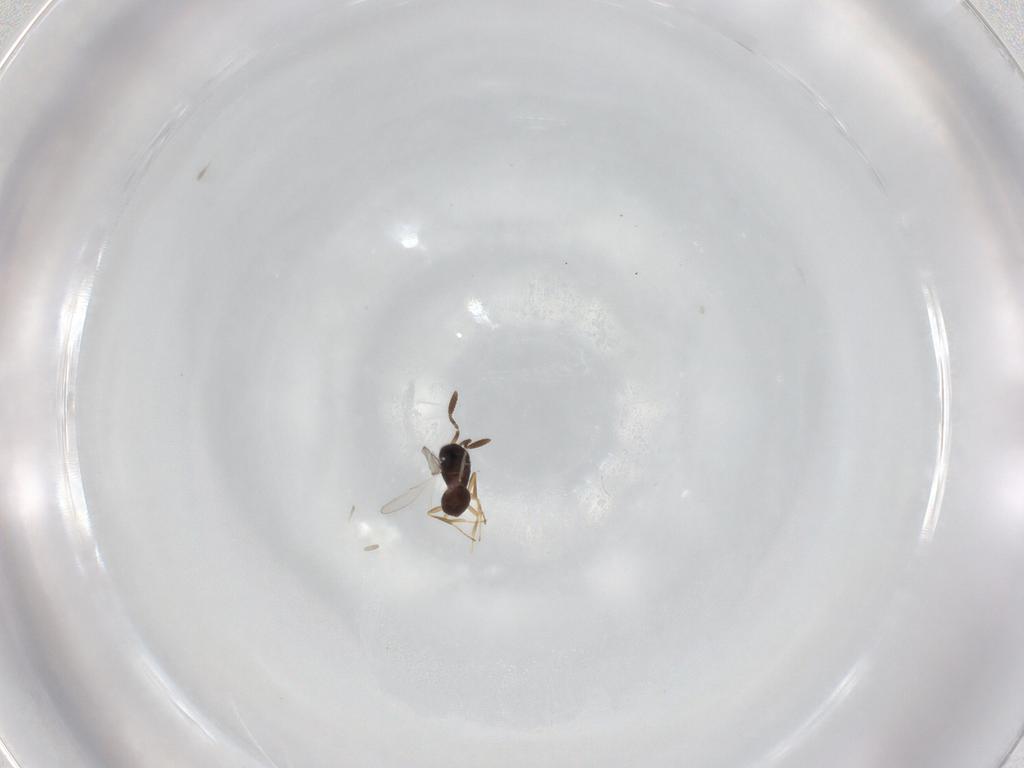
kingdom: Animalia
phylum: Arthropoda
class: Insecta
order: Hymenoptera
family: Scelionidae
